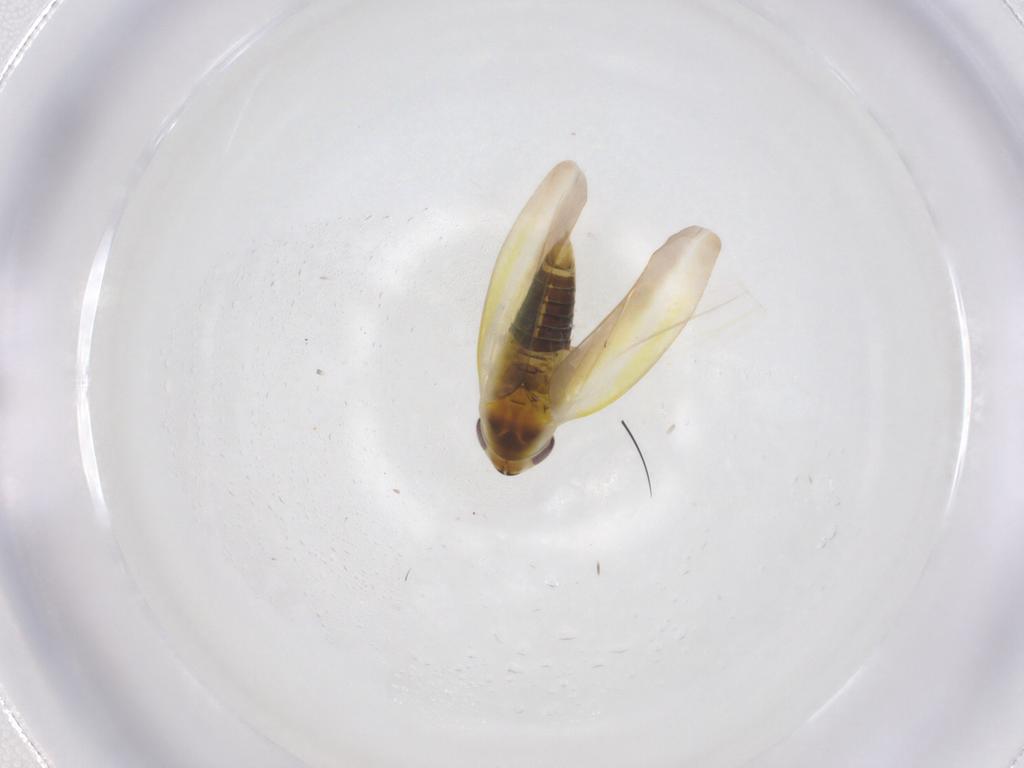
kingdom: Animalia
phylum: Arthropoda
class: Insecta
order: Hemiptera
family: Cicadellidae
